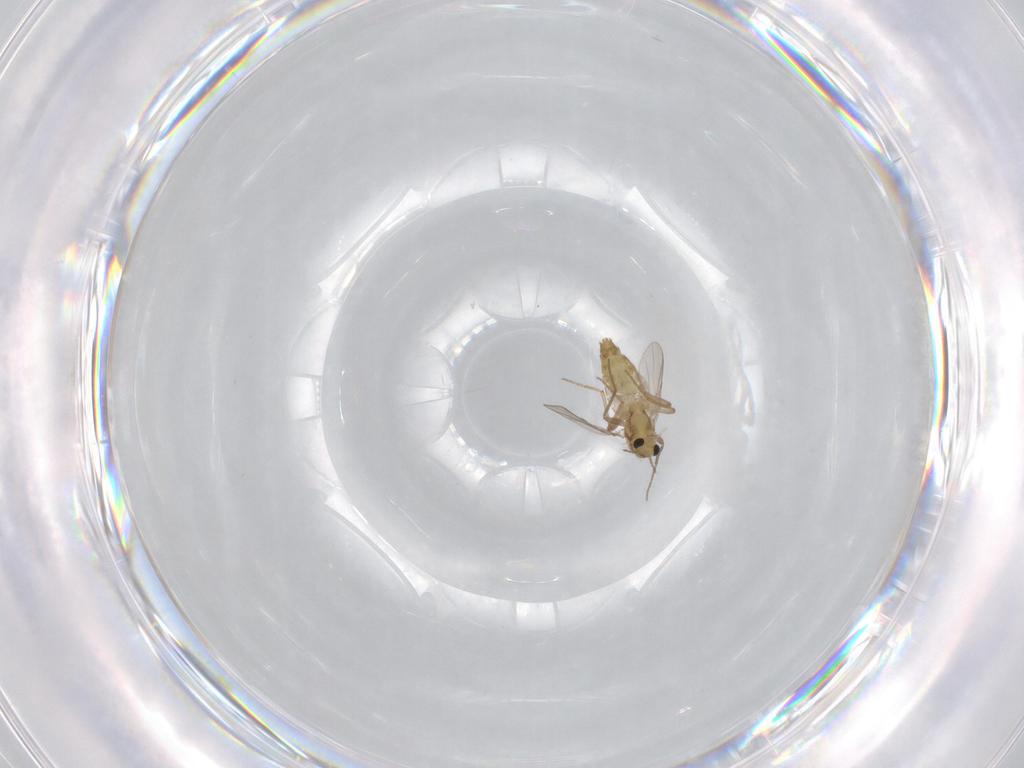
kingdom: Animalia
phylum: Arthropoda
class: Insecta
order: Diptera
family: Chironomidae
